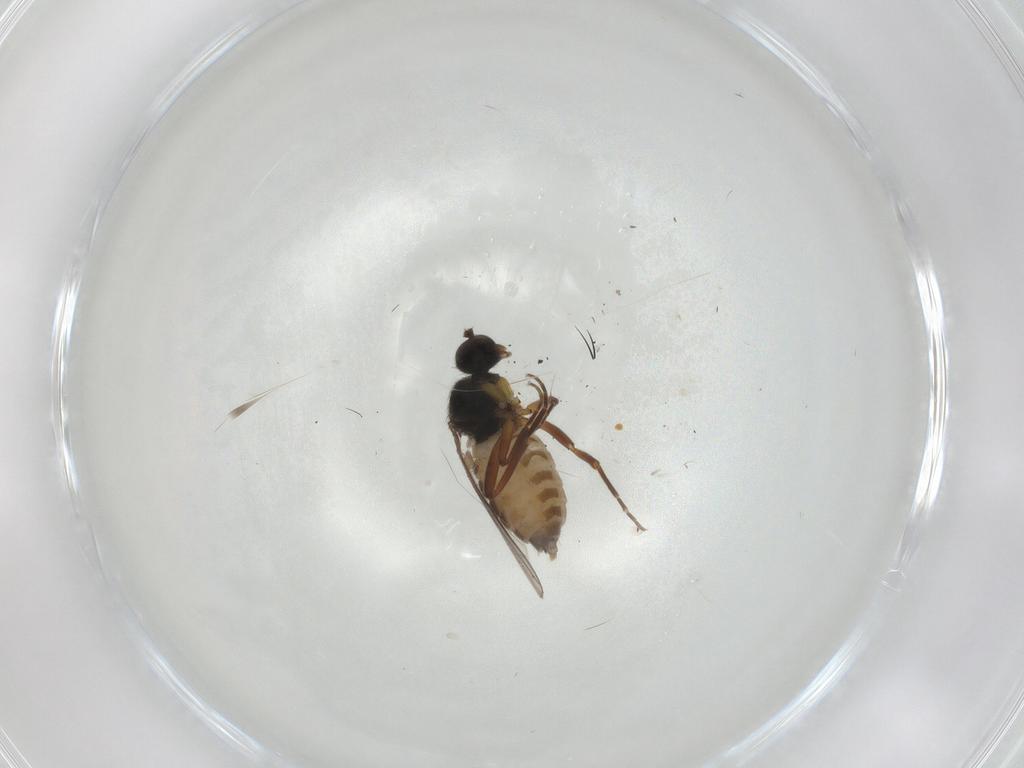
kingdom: Animalia
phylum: Arthropoda
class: Insecta
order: Diptera
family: Hybotidae
